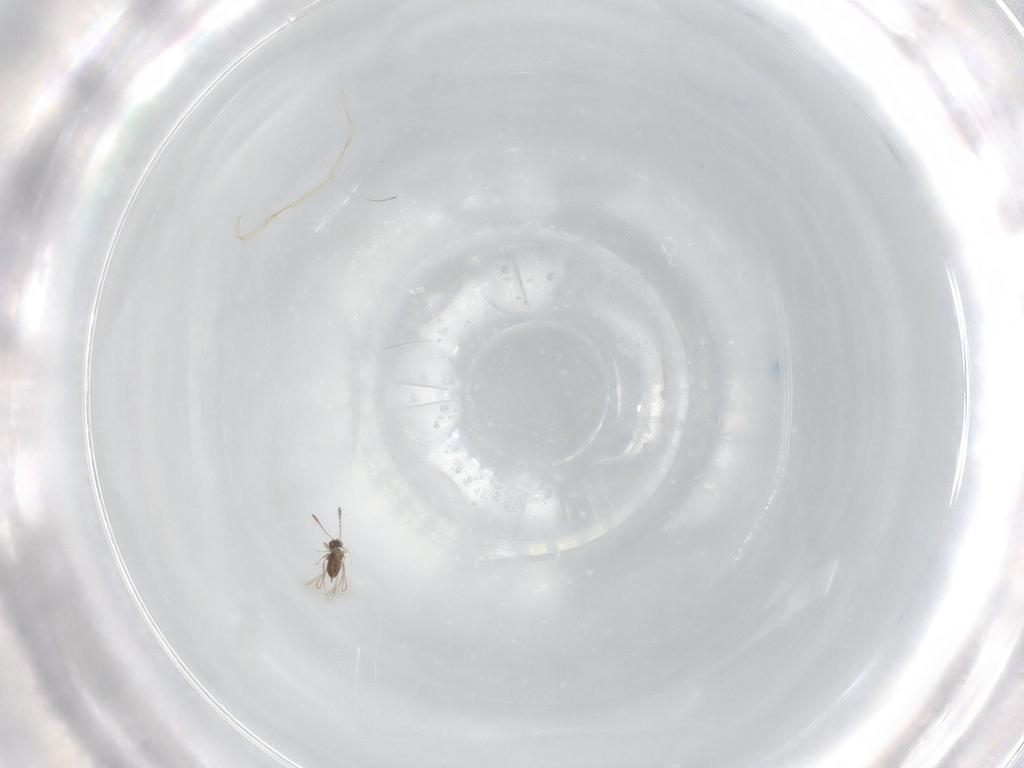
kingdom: Animalia
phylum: Arthropoda
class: Insecta
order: Hymenoptera
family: Mymaridae
